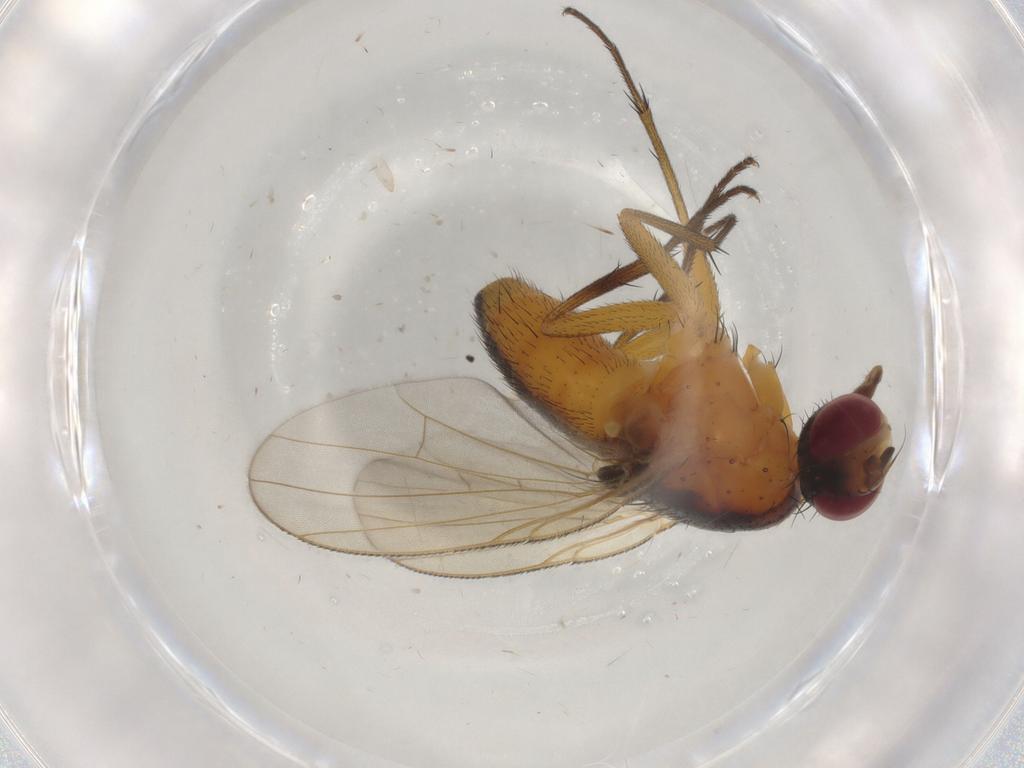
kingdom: Animalia
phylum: Arthropoda
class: Insecta
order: Diptera
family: Muscidae
